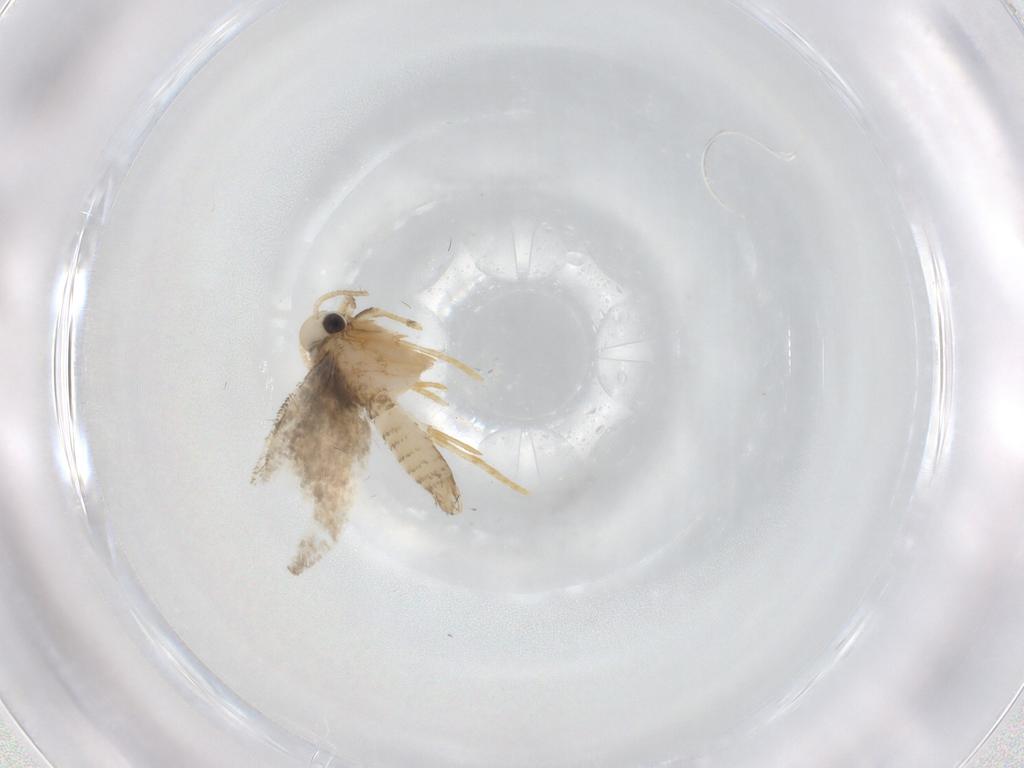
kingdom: Animalia
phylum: Arthropoda
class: Insecta
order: Lepidoptera
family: Psychidae
